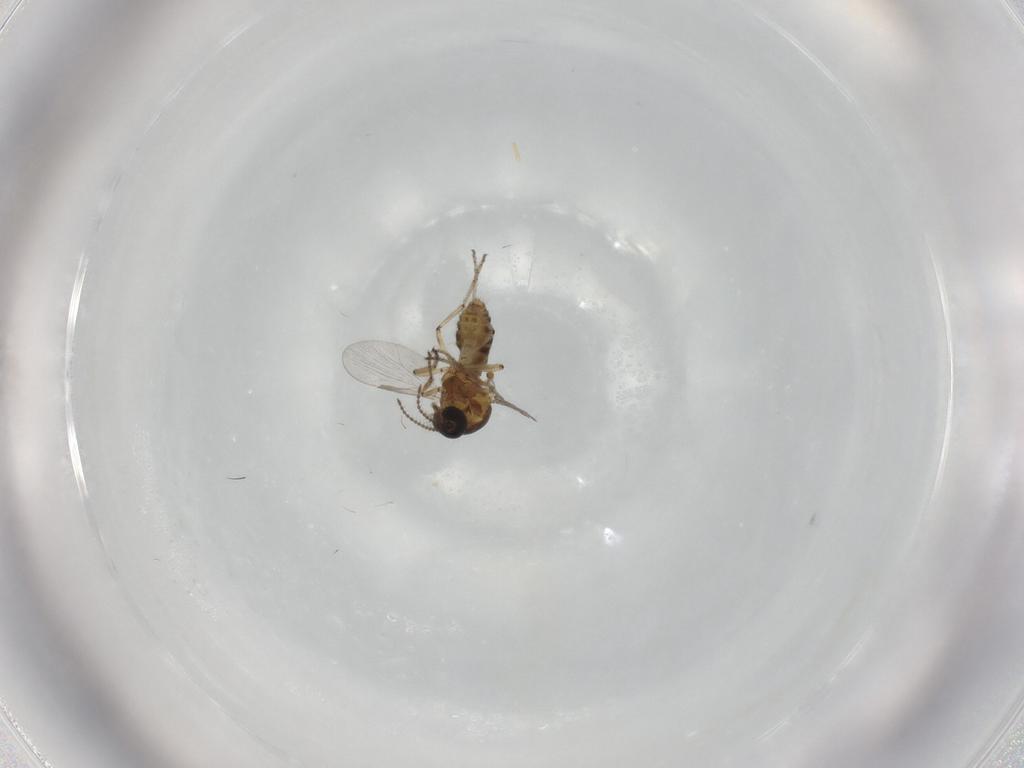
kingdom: Animalia
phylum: Arthropoda
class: Insecta
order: Diptera
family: Ceratopogonidae
